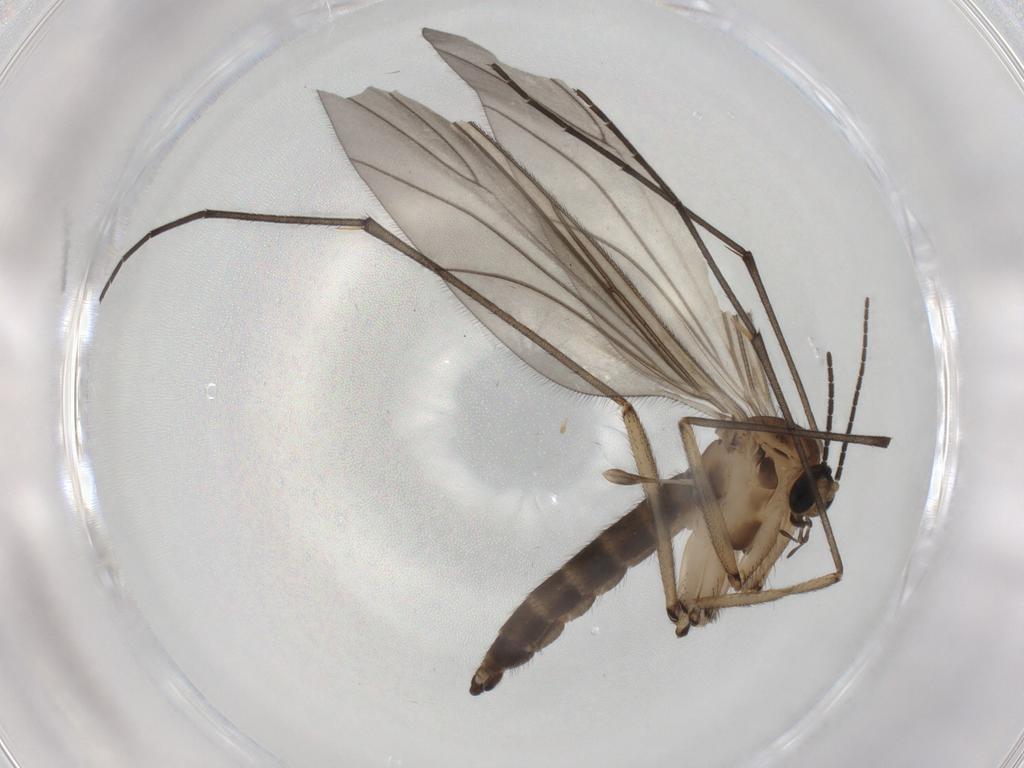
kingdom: Animalia
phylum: Arthropoda
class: Insecta
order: Diptera
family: Sciaridae
